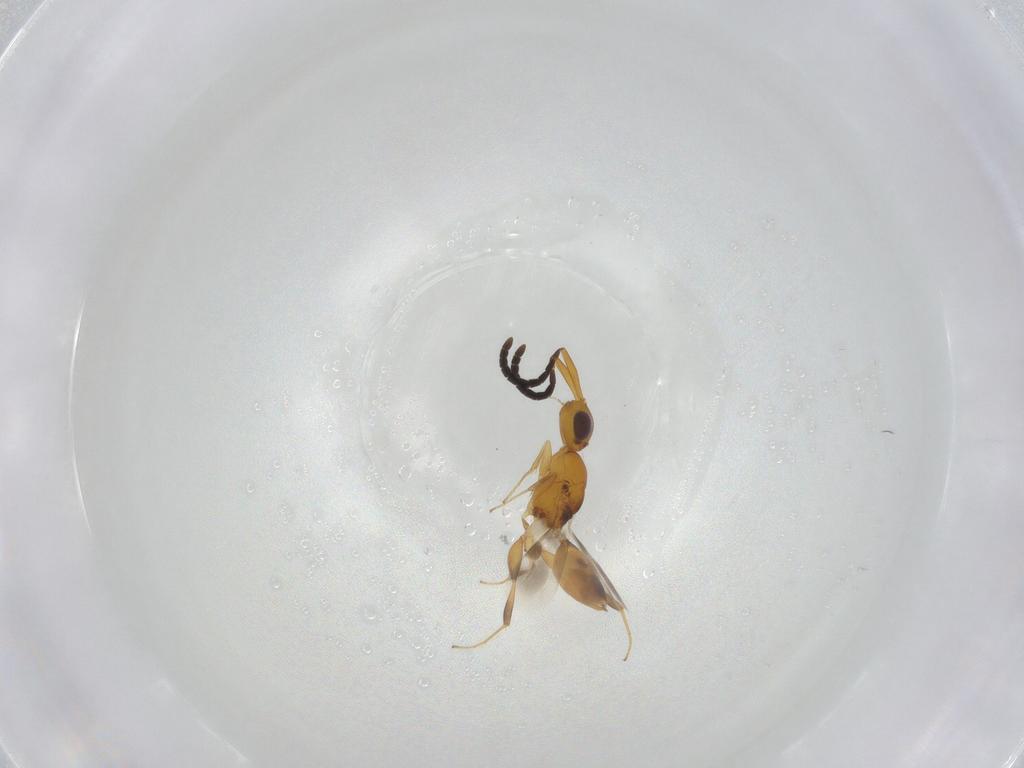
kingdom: Animalia
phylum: Arthropoda
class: Insecta
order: Hymenoptera
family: Megaspilidae
